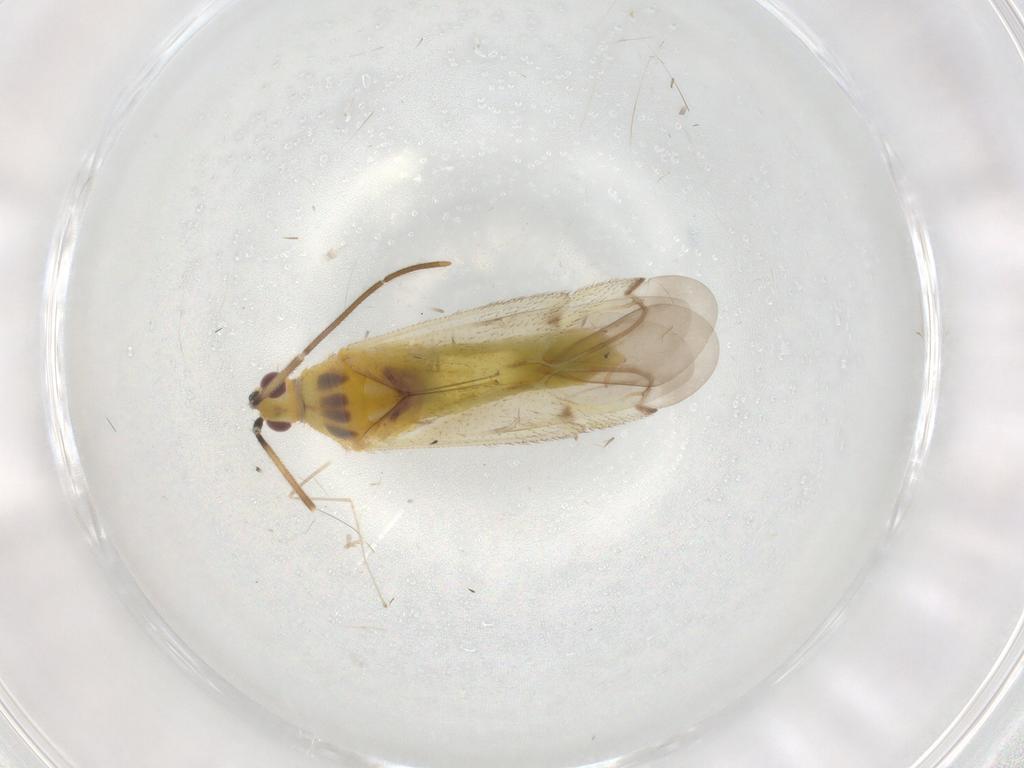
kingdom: Animalia
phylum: Arthropoda
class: Insecta
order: Hemiptera
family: Miridae
